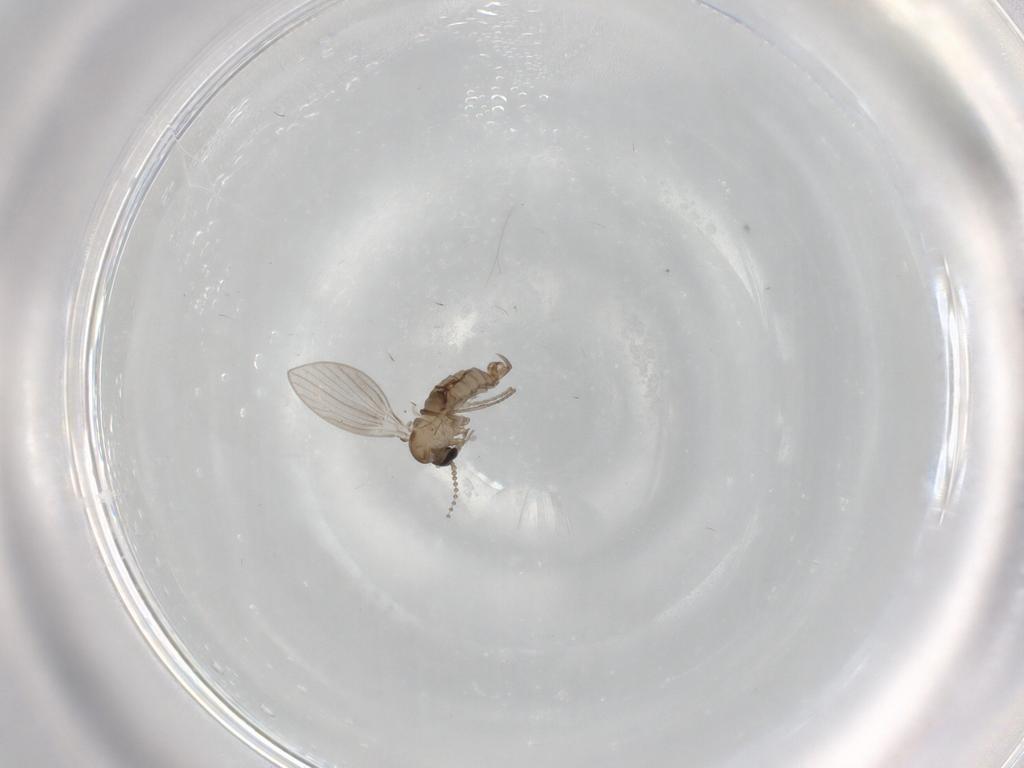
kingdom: Animalia
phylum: Arthropoda
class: Insecta
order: Diptera
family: Psychodidae
